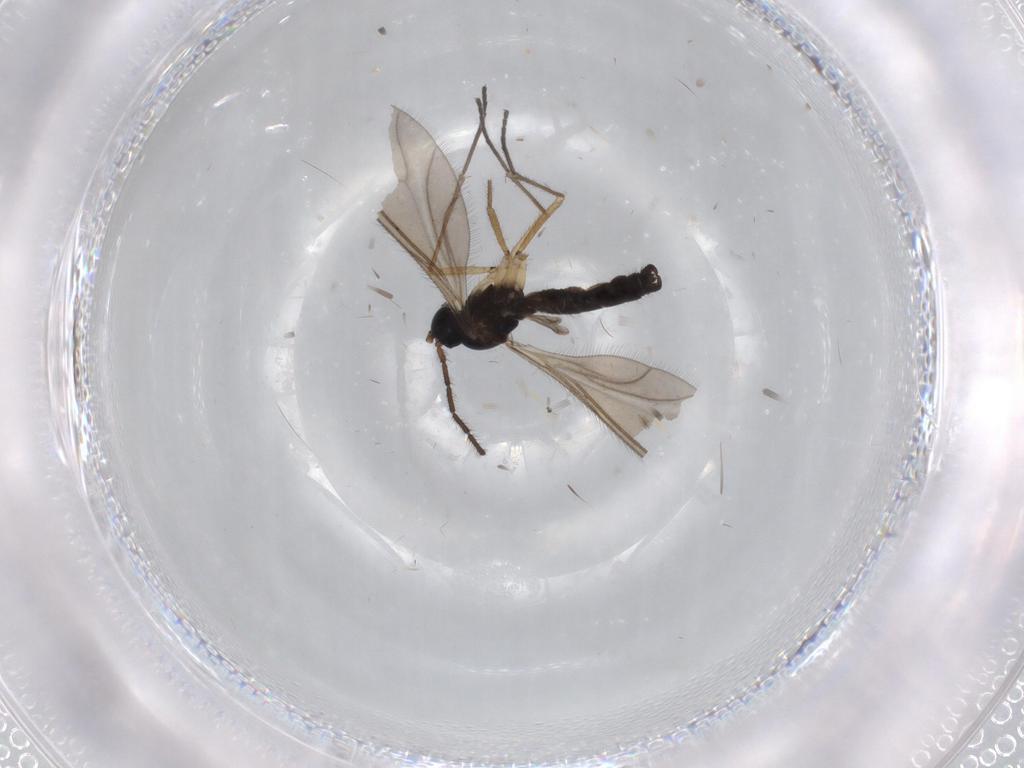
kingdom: Animalia
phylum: Arthropoda
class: Insecta
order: Diptera
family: Sciaridae
